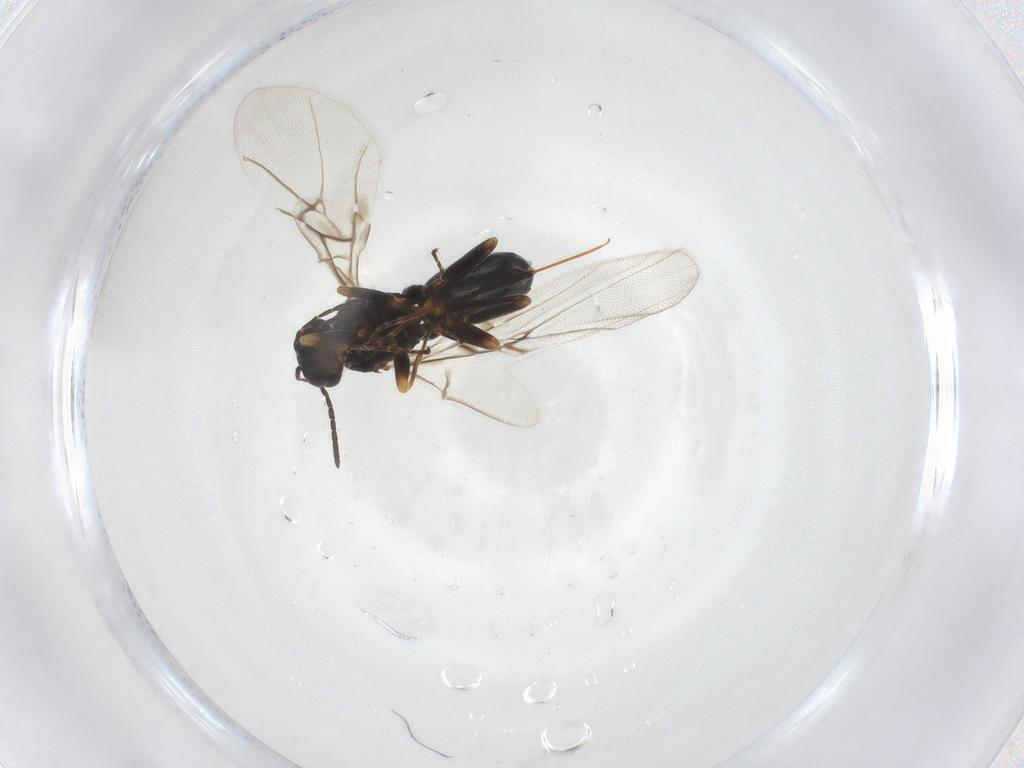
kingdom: Animalia
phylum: Arthropoda
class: Insecta
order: Hymenoptera
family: Cynipidae
